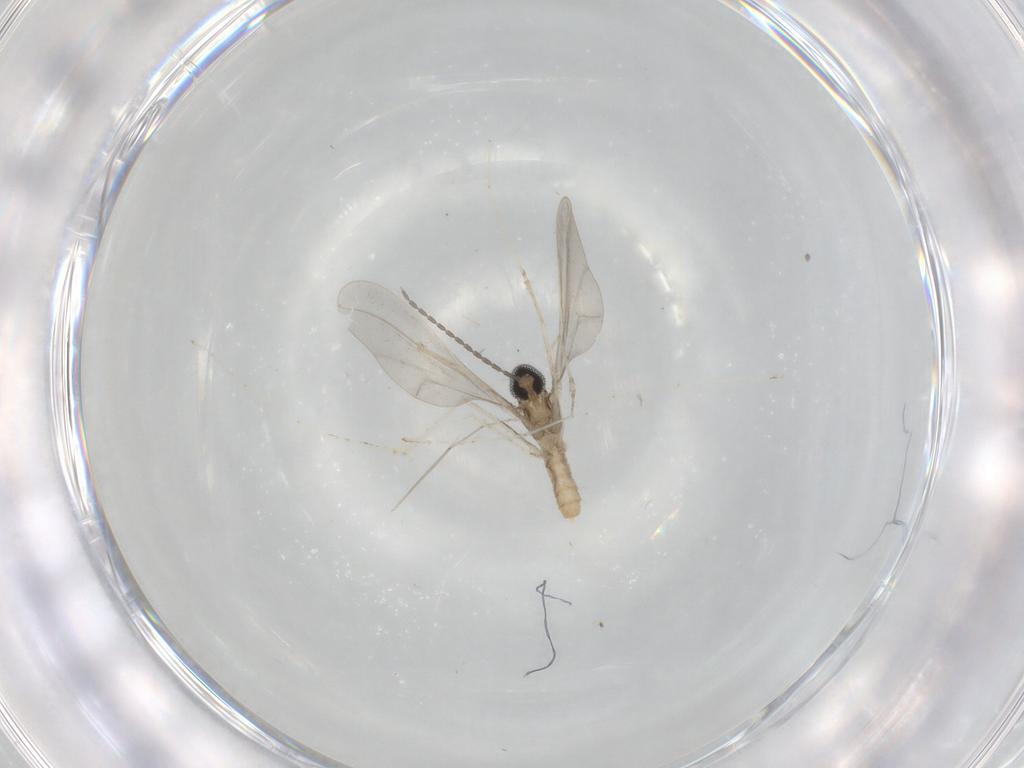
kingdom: Animalia
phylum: Arthropoda
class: Insecta
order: Diptera
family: Cecidomyiidae
